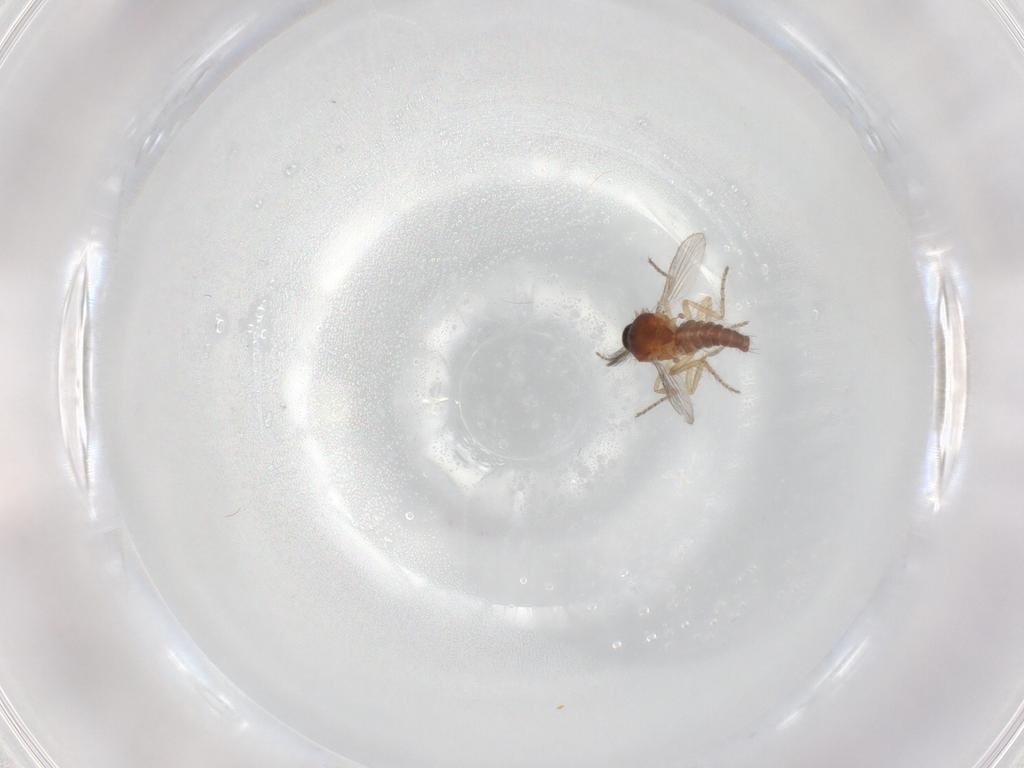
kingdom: Animalia
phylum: Arthropoda
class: Insecta
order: Diptera
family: Ceratopogonidae
